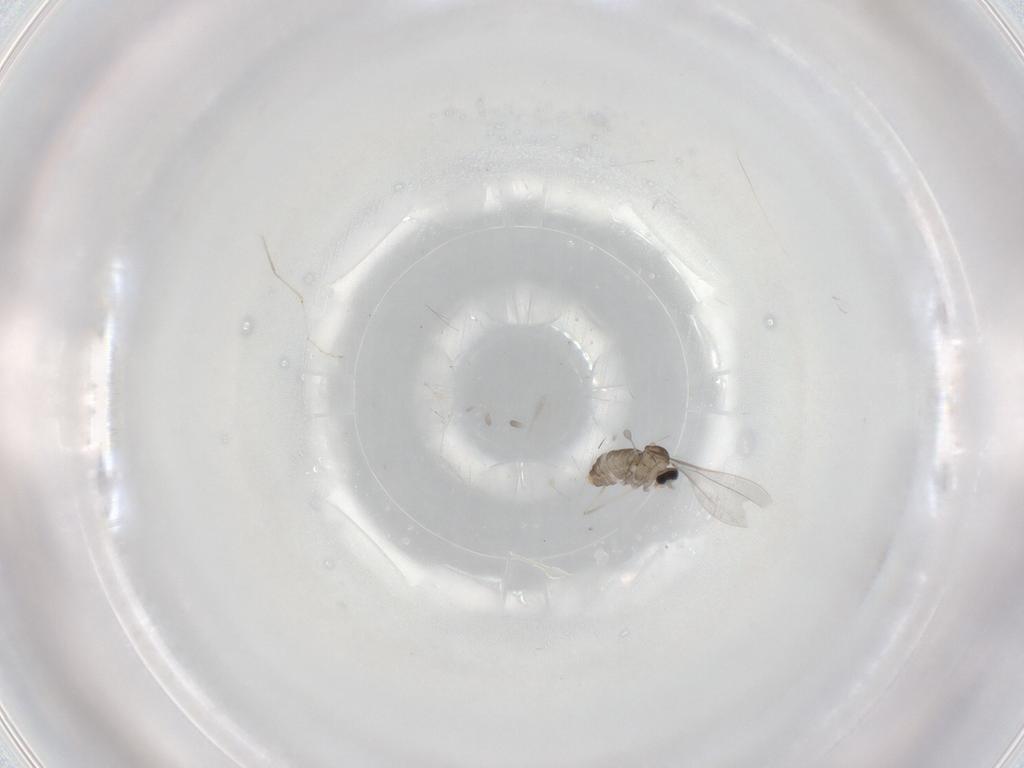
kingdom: Animalia
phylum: Arthropoda
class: Insecta
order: Diptera
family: Cecidomyiidae
